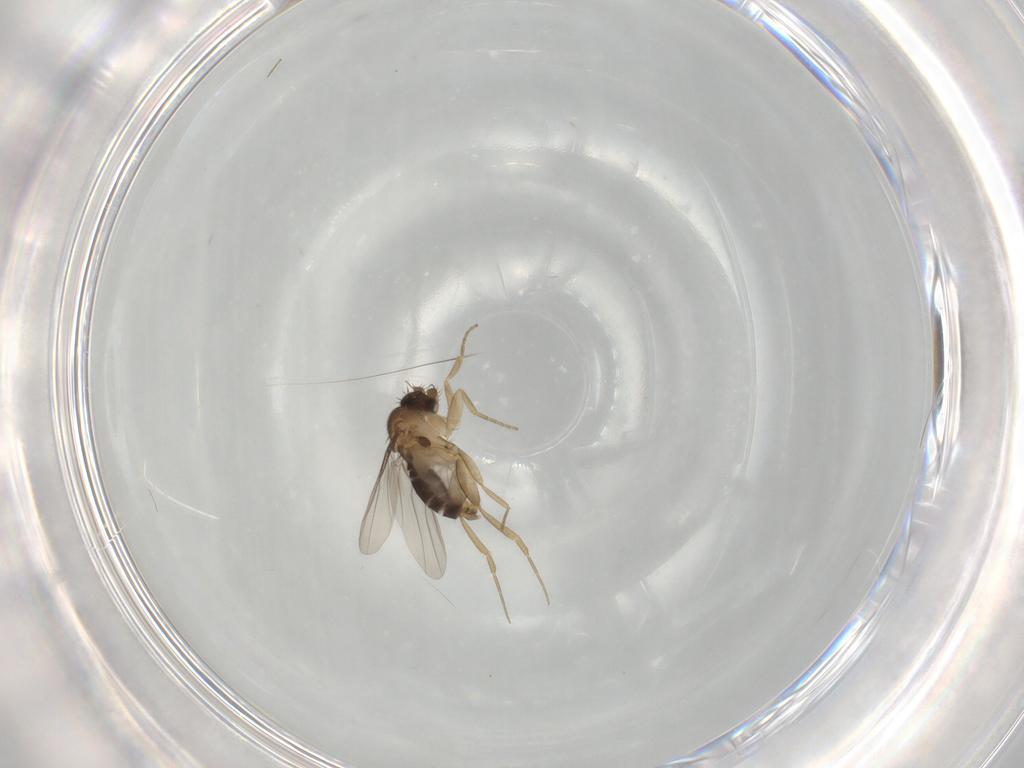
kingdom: Animalia
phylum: Arthropoda
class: Insecta
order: Diptera
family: Phoridae
